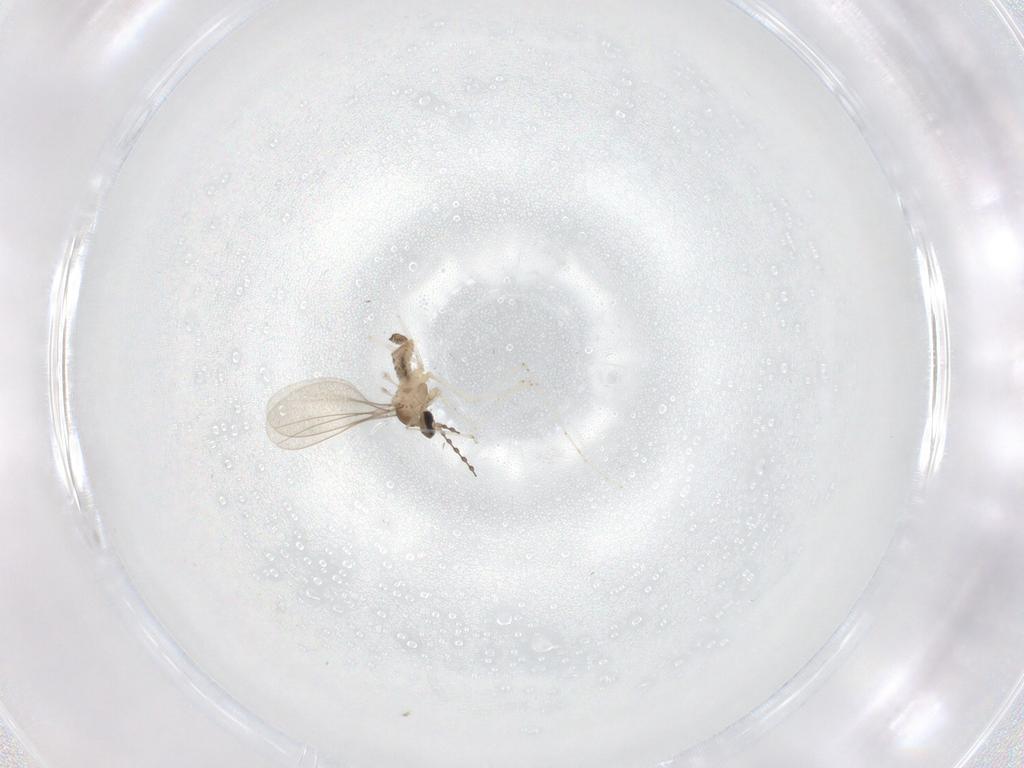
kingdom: Animalia
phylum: Arthropoda
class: Insecta
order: Diptera
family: Cecidomyiidae
